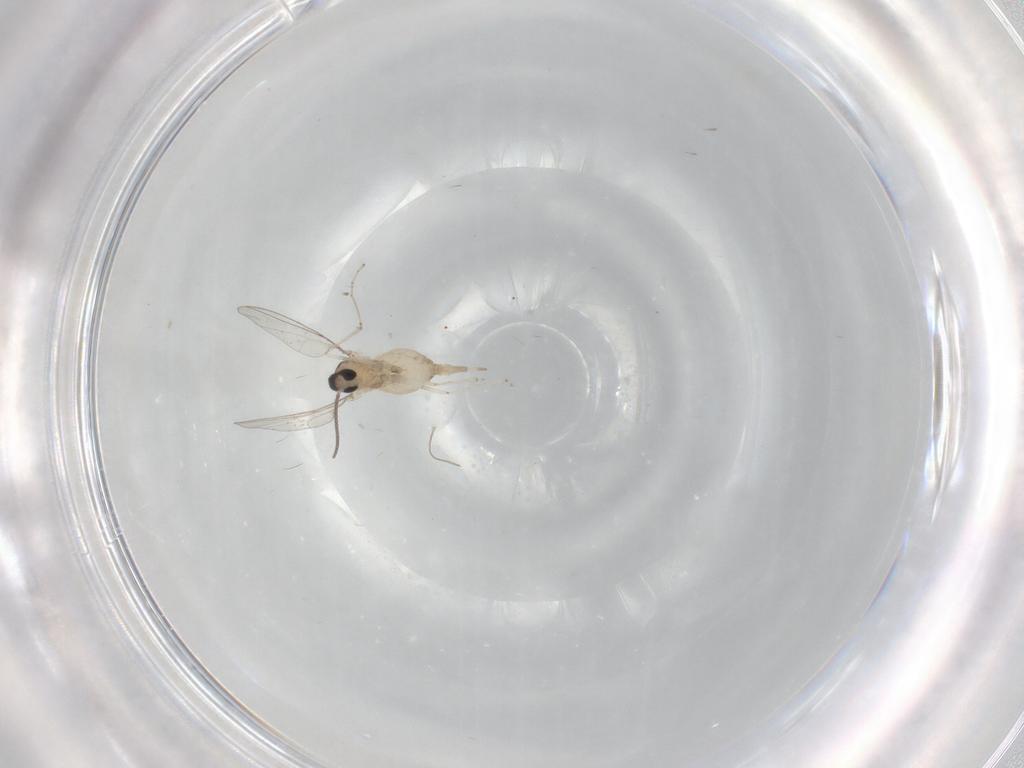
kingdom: Animalia
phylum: Arthropoda
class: Insecta
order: Diptera
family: Cecidomyiidae
